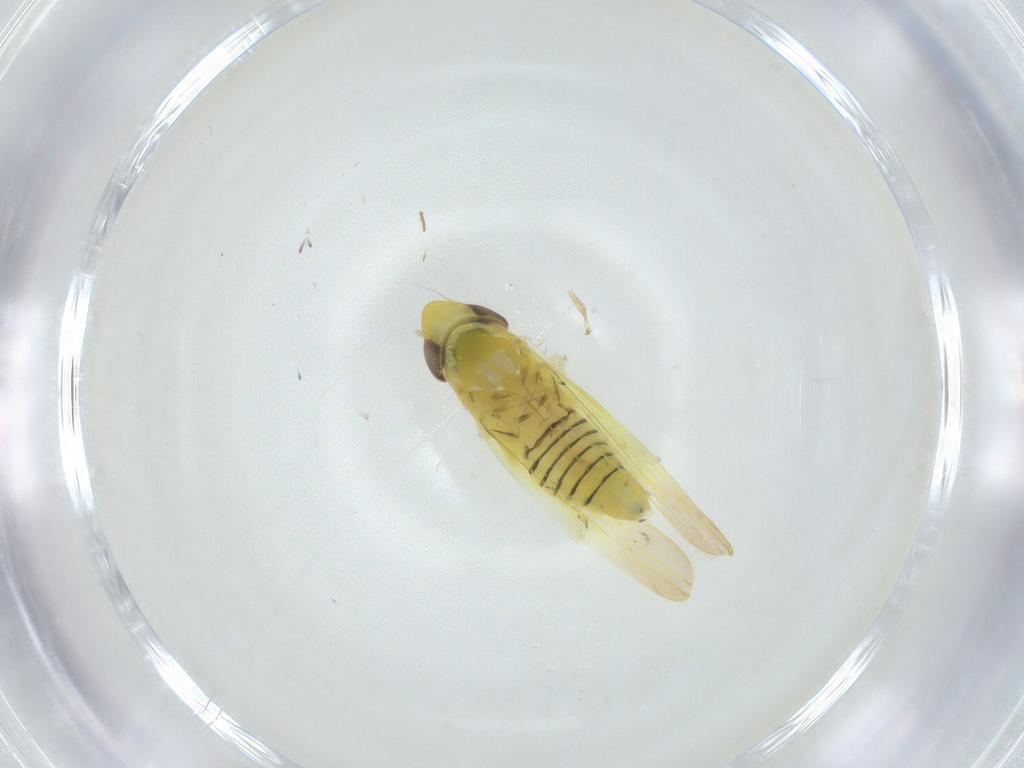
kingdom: Animalia
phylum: Arthropoda
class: Insecta
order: Hemiptera
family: Cicadellidae
